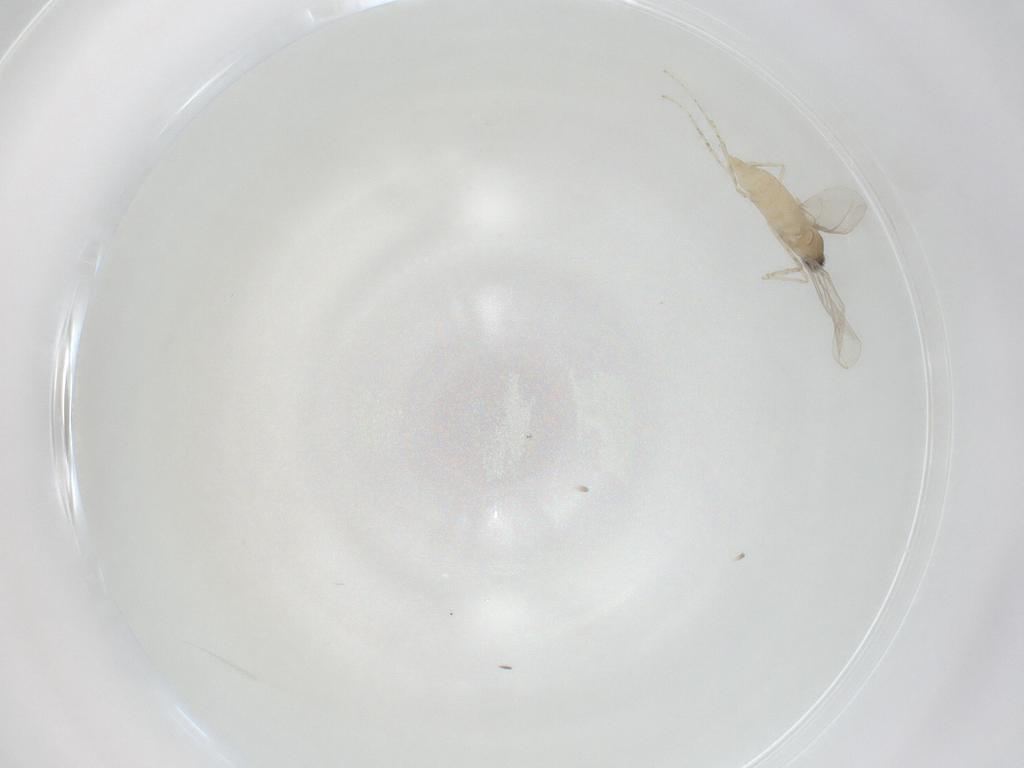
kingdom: Animalia
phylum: Arthropoda
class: Insecta
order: Diptera
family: Cecidomyiidae
